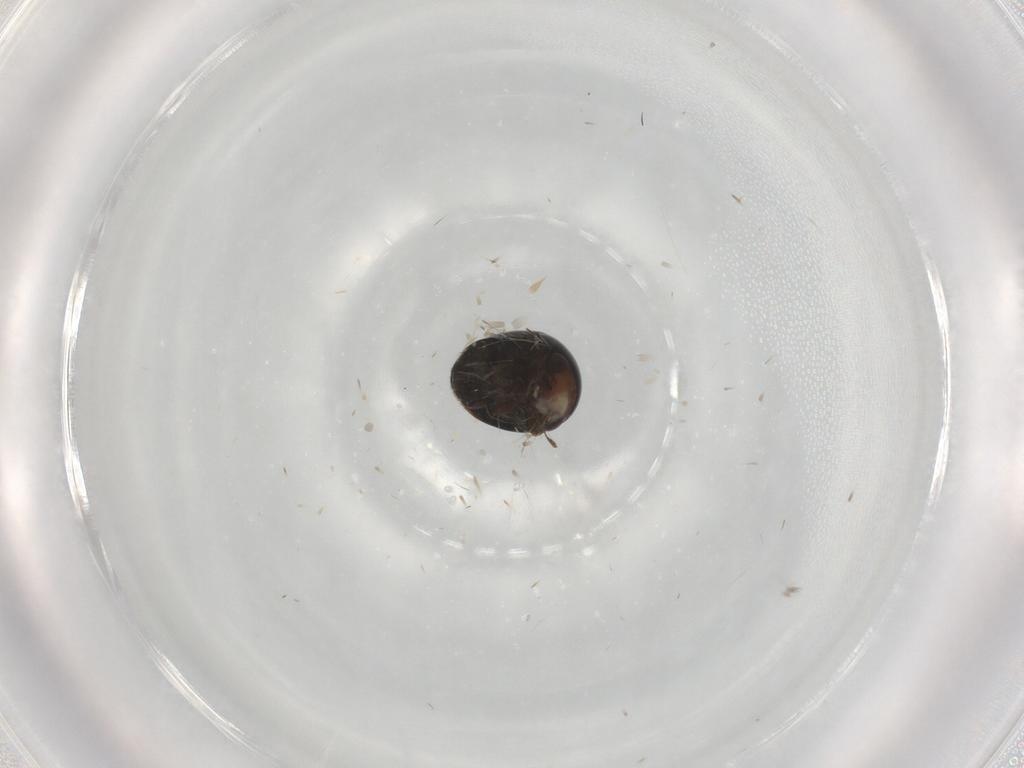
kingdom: Animalia
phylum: Arthropoda
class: Insecta
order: Coleoptera
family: Cybocephalidae
